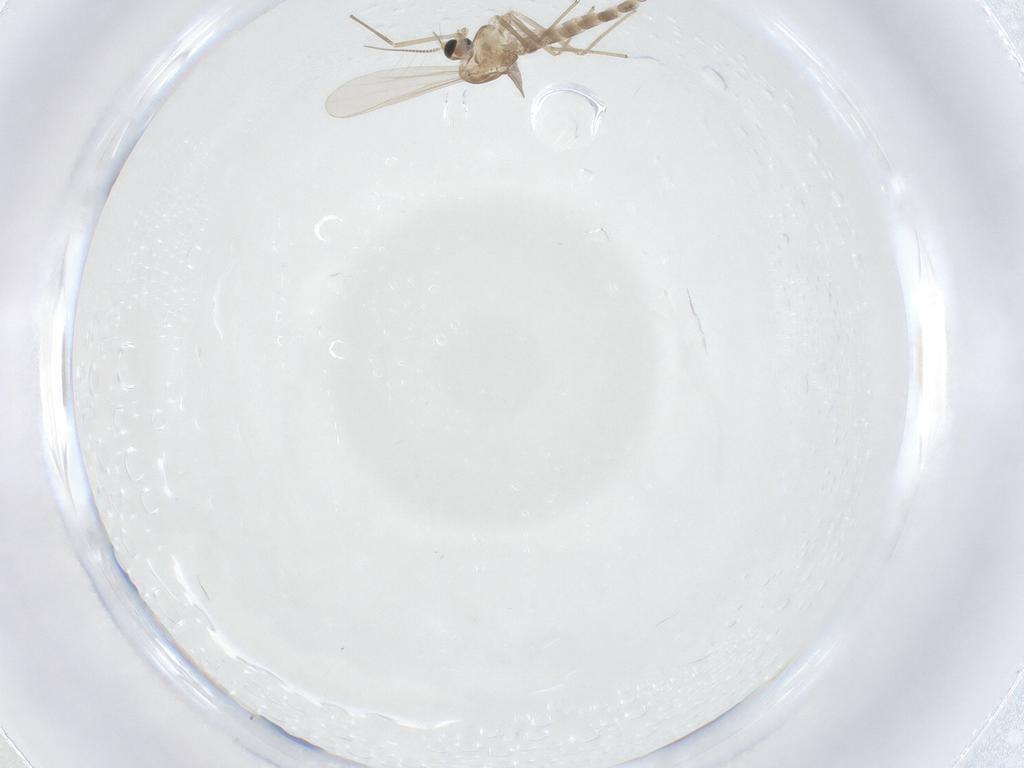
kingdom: Animalia
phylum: Arthropoda
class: Insecta
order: Diptera
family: Cecidomyiidae
